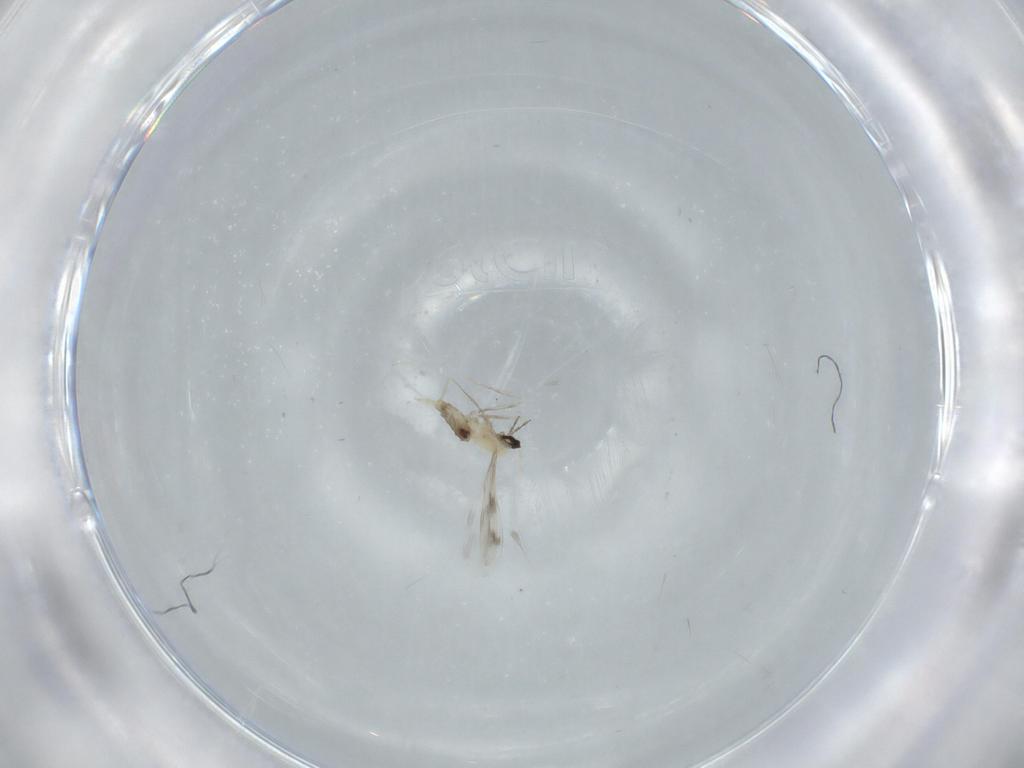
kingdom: Animalia
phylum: Arthropoda
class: Insecta
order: Diptera
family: Cecidomyiidae
